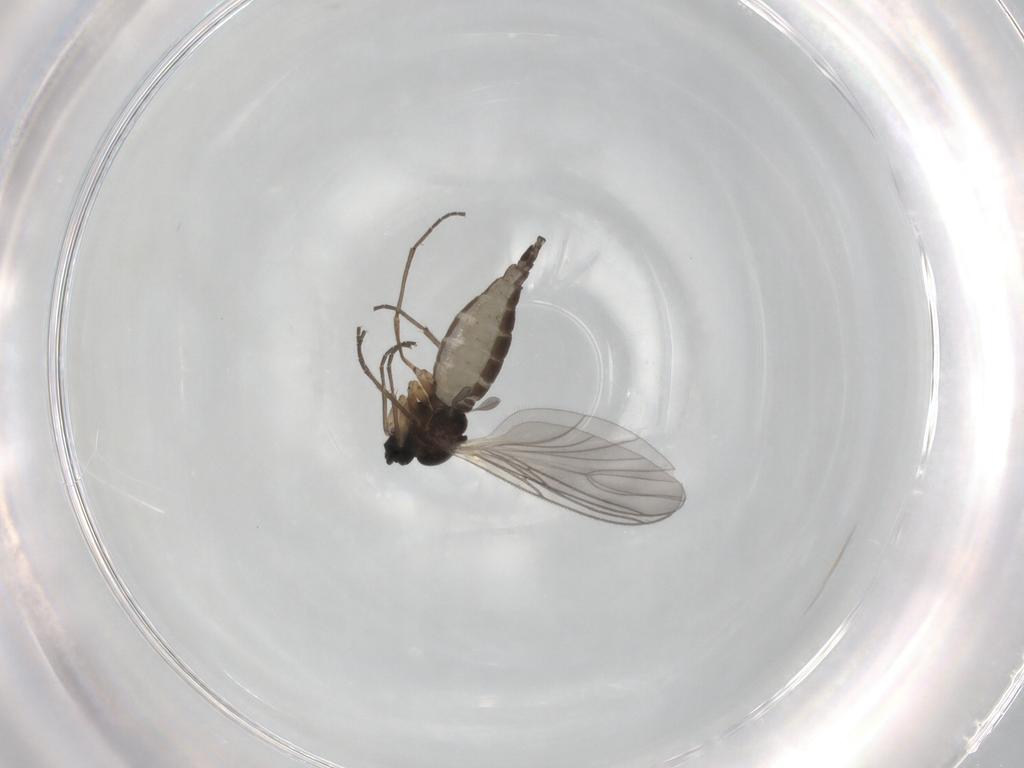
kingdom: Animalia
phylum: Arthropoda
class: Insecta
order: Diptera
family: Sciaridae
